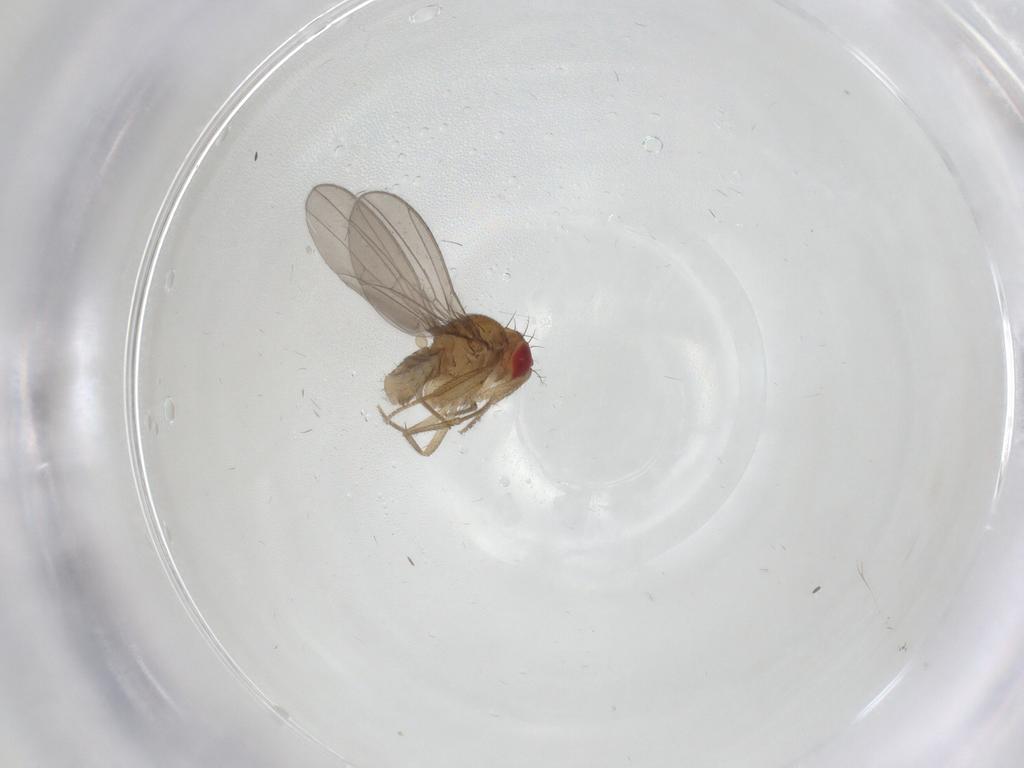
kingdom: Animalia
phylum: Arthropoda
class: Insecta
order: Diptera
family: Drosophilidae
